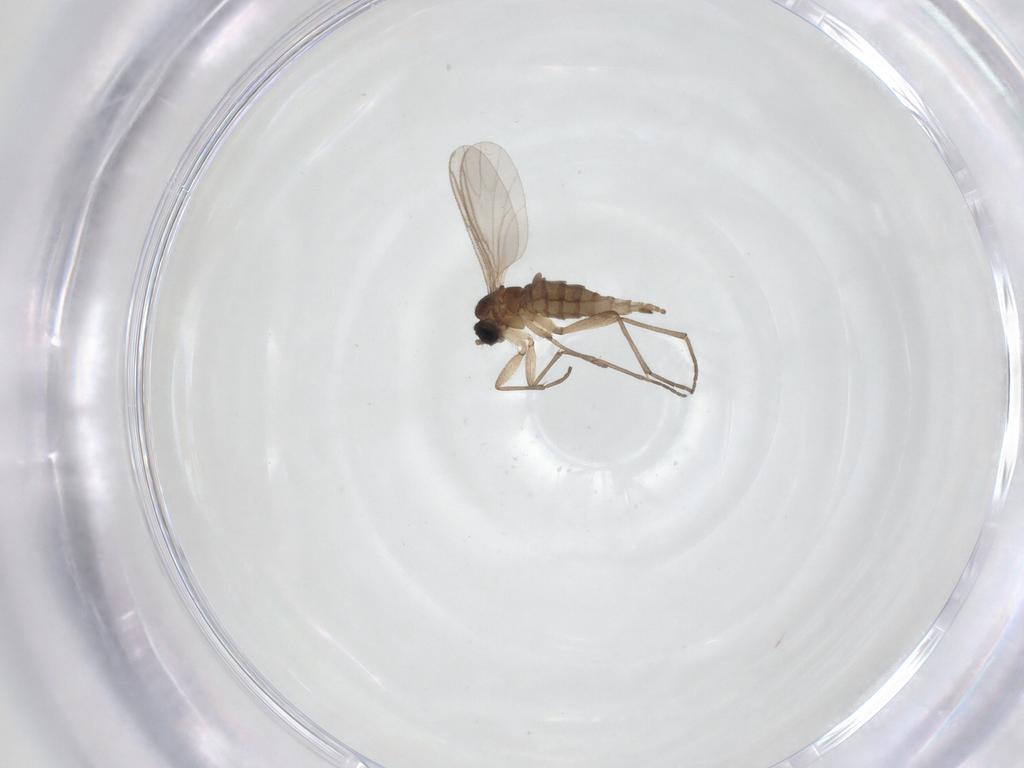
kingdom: Animalia
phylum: Arthropoda
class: Insecta
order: Diptera
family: Sciaridae
